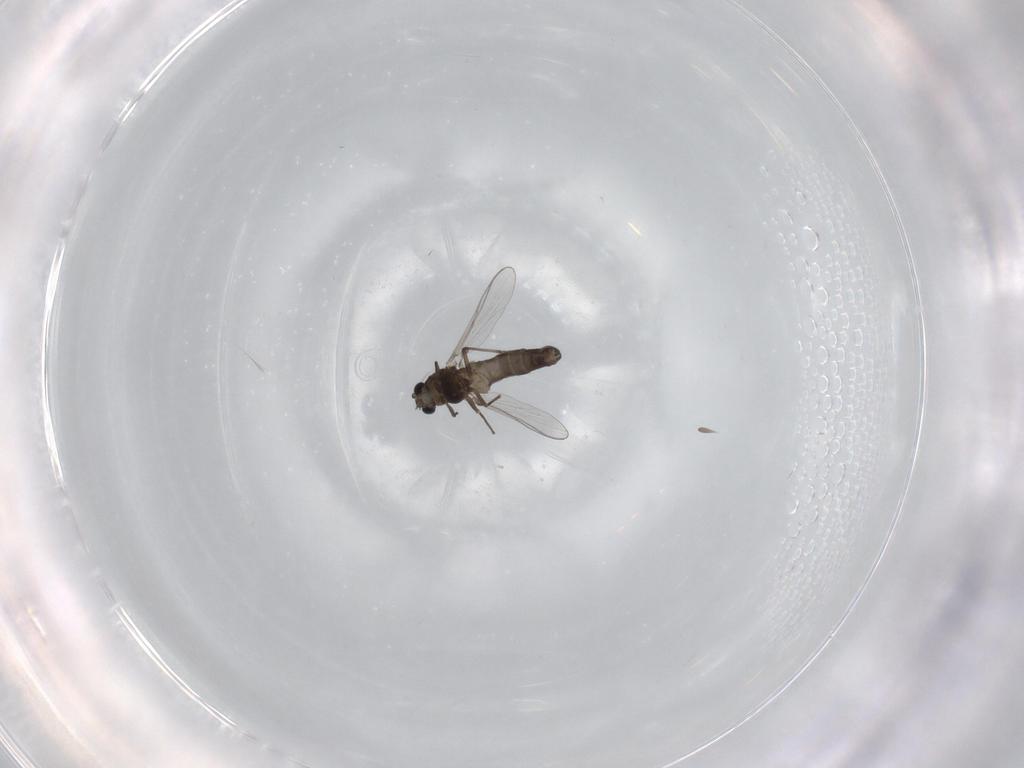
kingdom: Animalia
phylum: Arthropoda
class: Insecta
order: Diptera
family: Chironomidae
